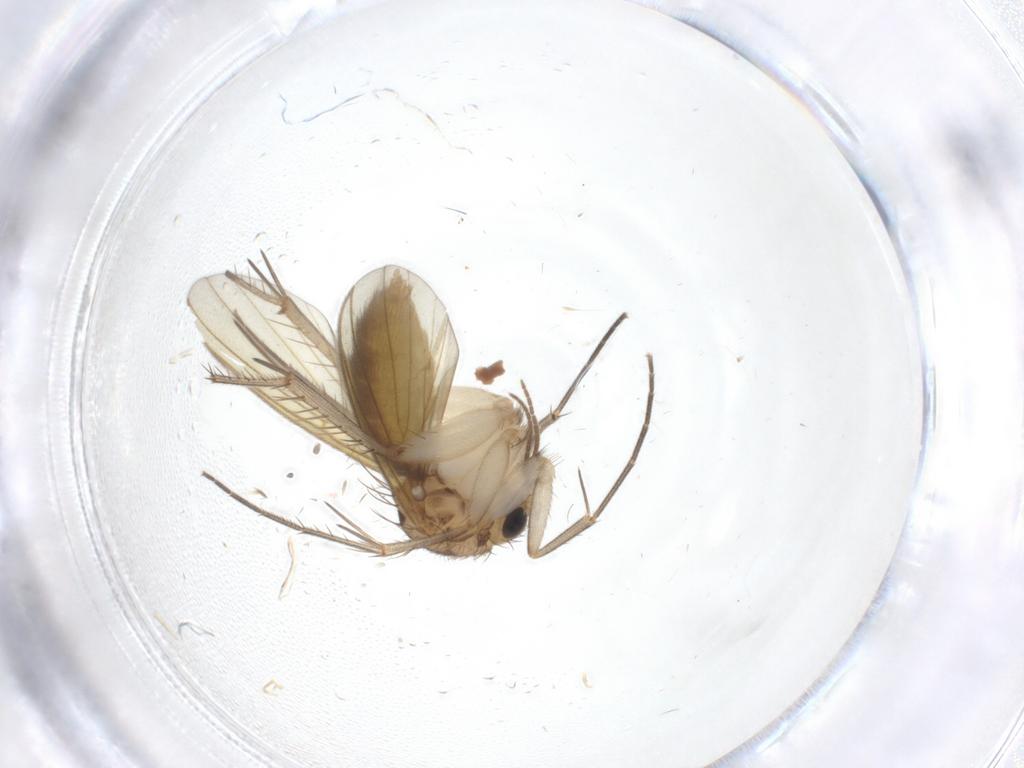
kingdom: Animalia
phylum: Arthropoda
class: Insecta
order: Diptera
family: Mycetophilidae
